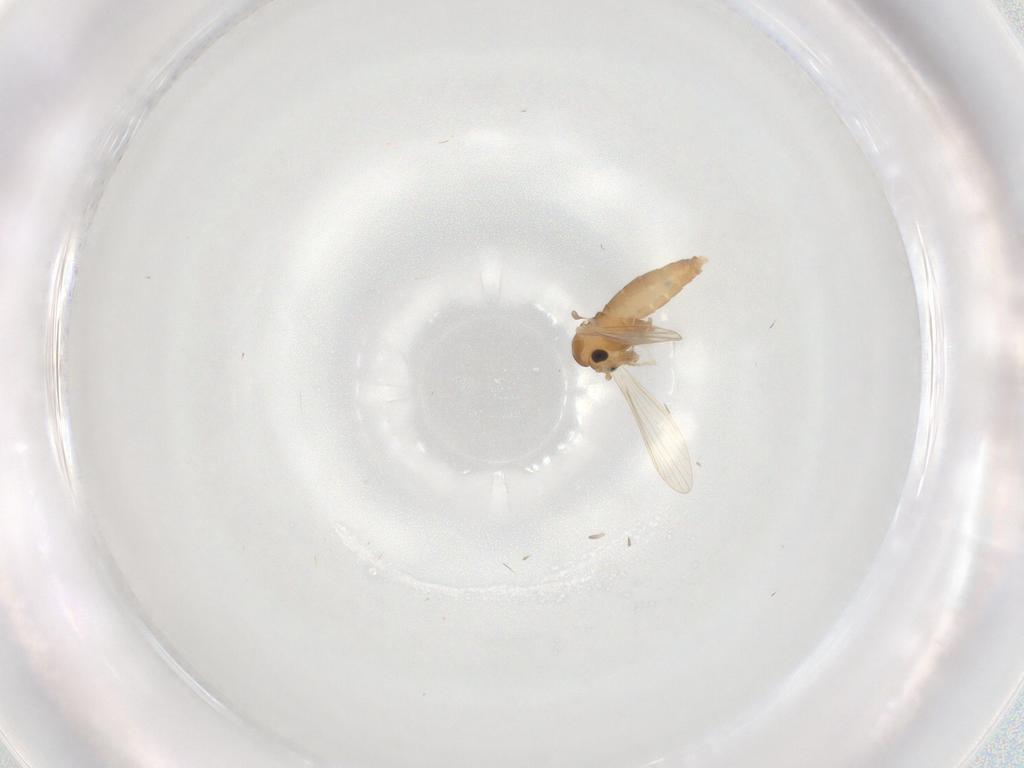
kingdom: Animalia
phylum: Arthropoda
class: Insecta
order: Diptera
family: Psychodidae
